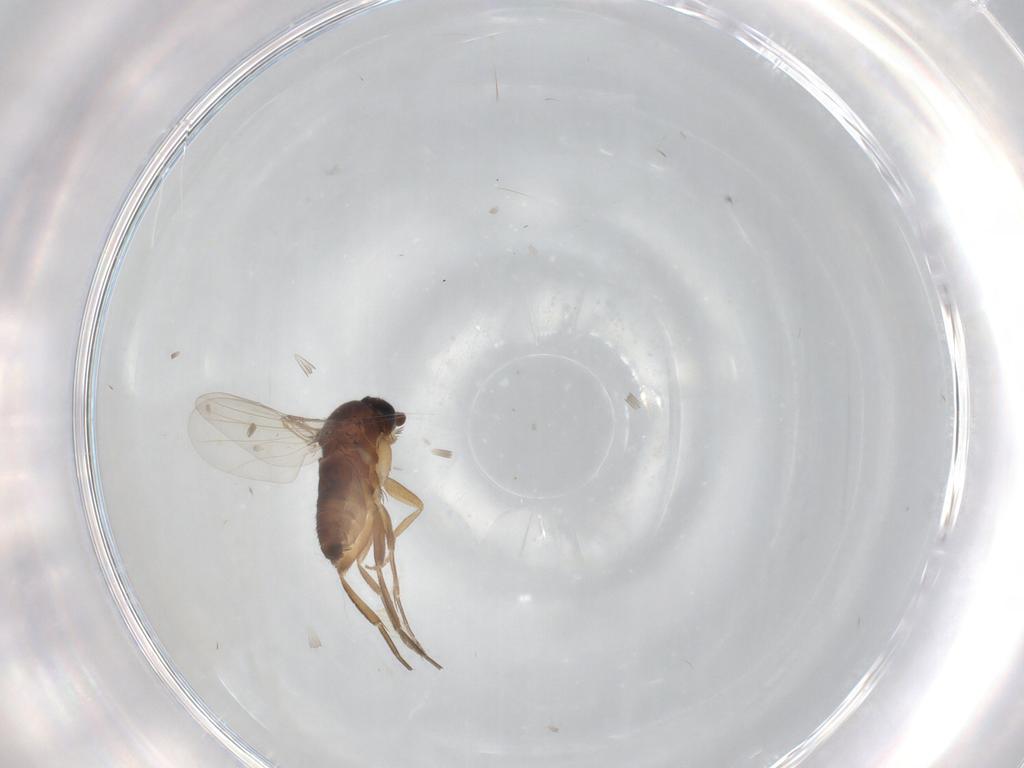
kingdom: Animalia
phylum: Arthropoda
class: Insecta
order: Diptera
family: Phoridae
